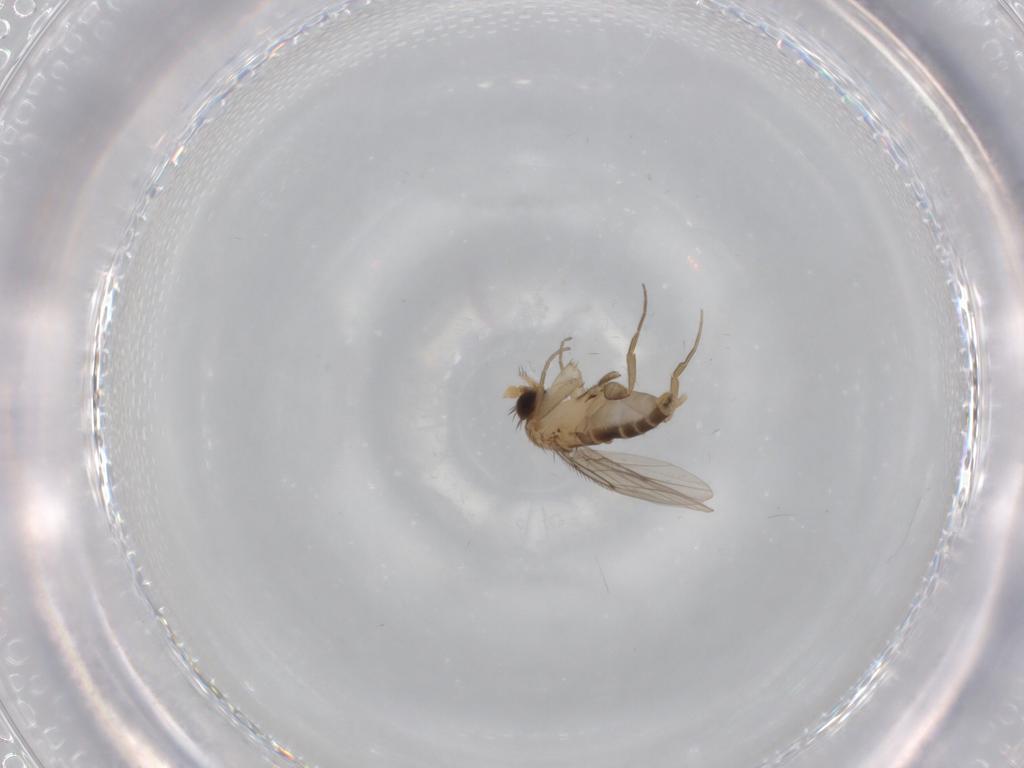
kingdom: Animalia
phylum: Arthropoda
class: Insecta
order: Diptera
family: Phoridae
